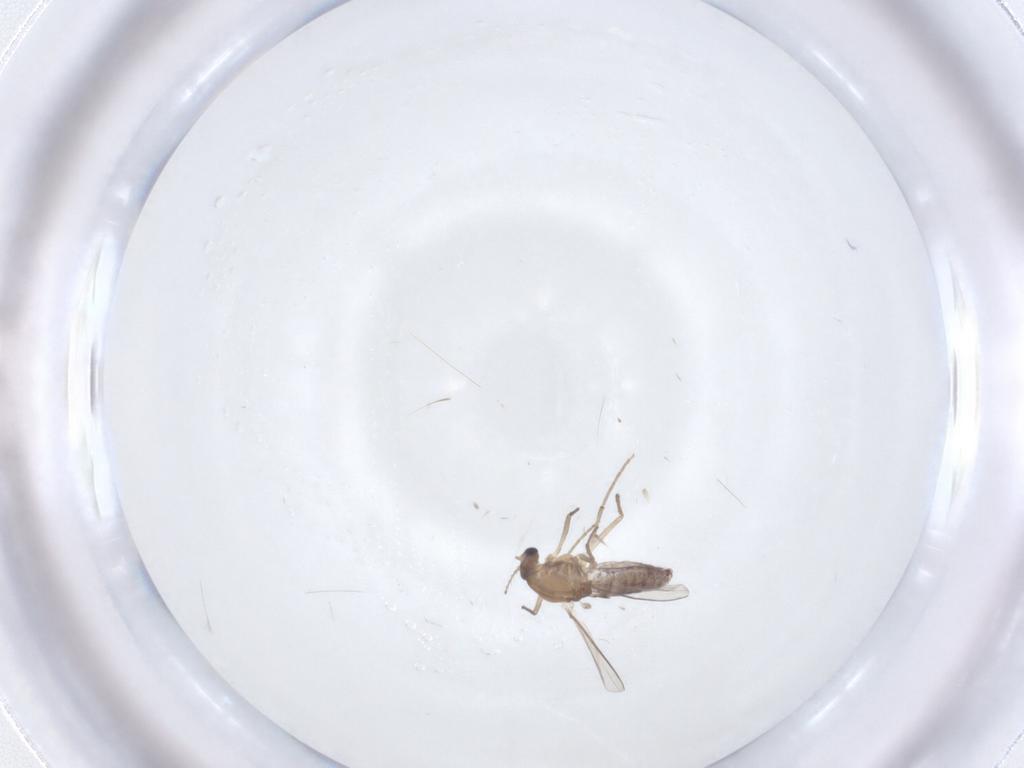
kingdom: Animalia
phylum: Arthropoda
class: Insecta
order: Diptera
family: Chironomidae
